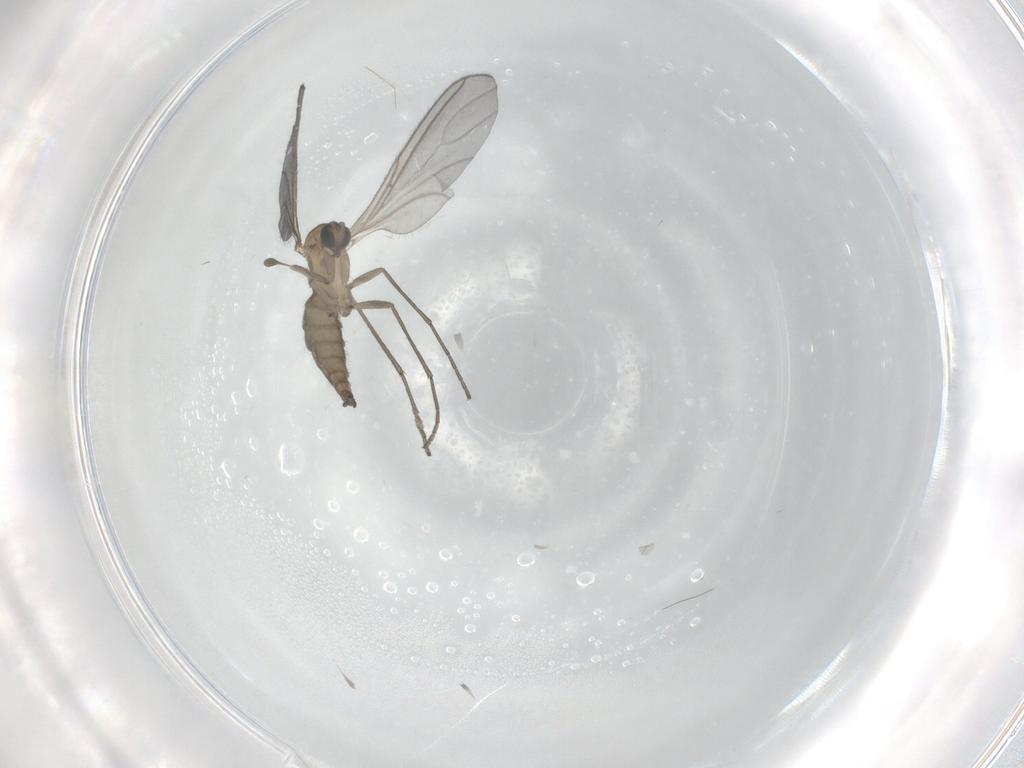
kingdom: Animalia
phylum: Arthropoda
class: Insecta
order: Diptera
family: Sciaridae
